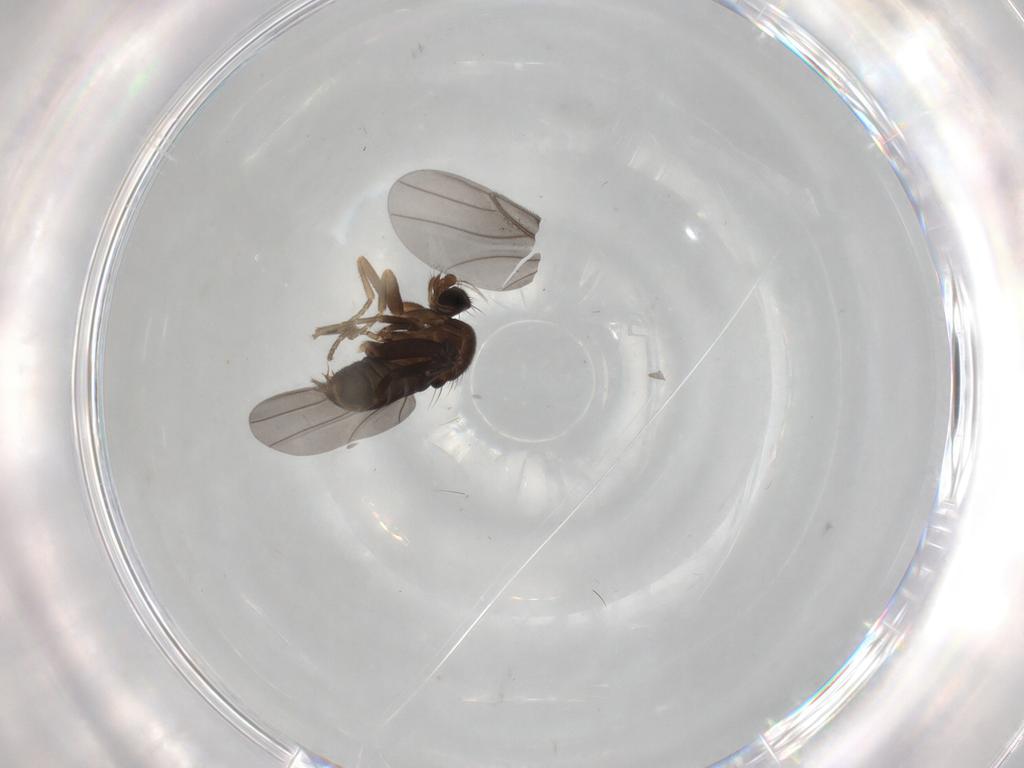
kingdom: Animalia
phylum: Arthropoda
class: Insecta
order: Diptera
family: Phoridae
